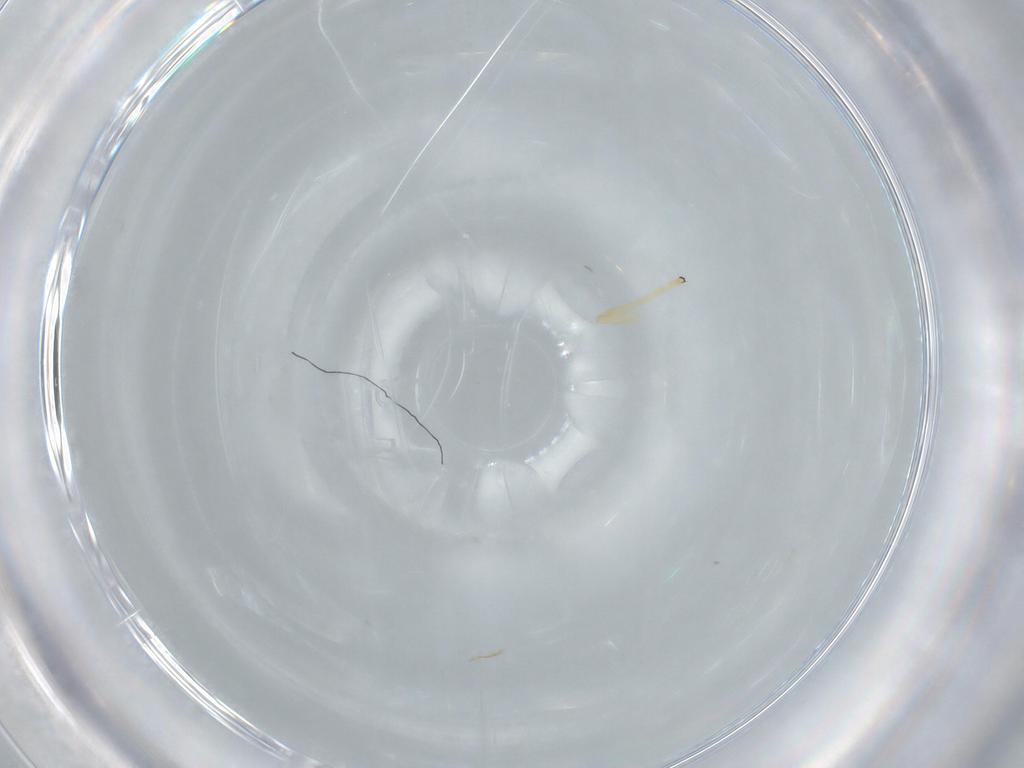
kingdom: Animalia
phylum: Arthropoda
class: Insecta
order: Diptera
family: Chironomidae
